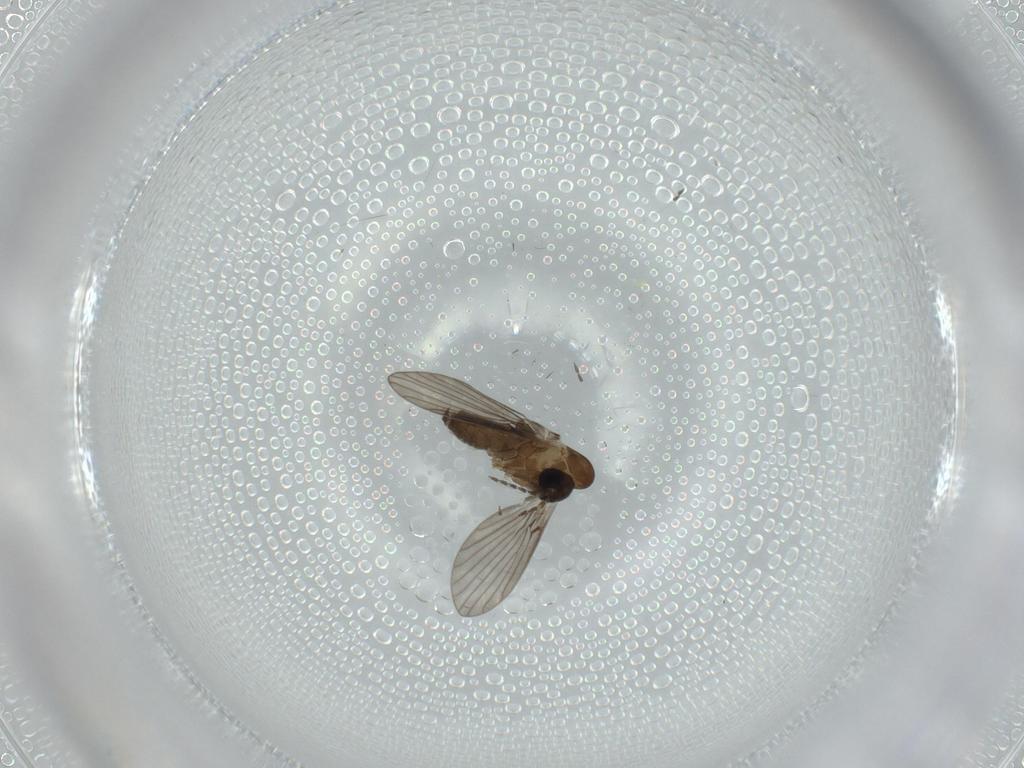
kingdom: Animalia
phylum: Arthropoda
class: Insecta
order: Diptera
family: Psychodidae
